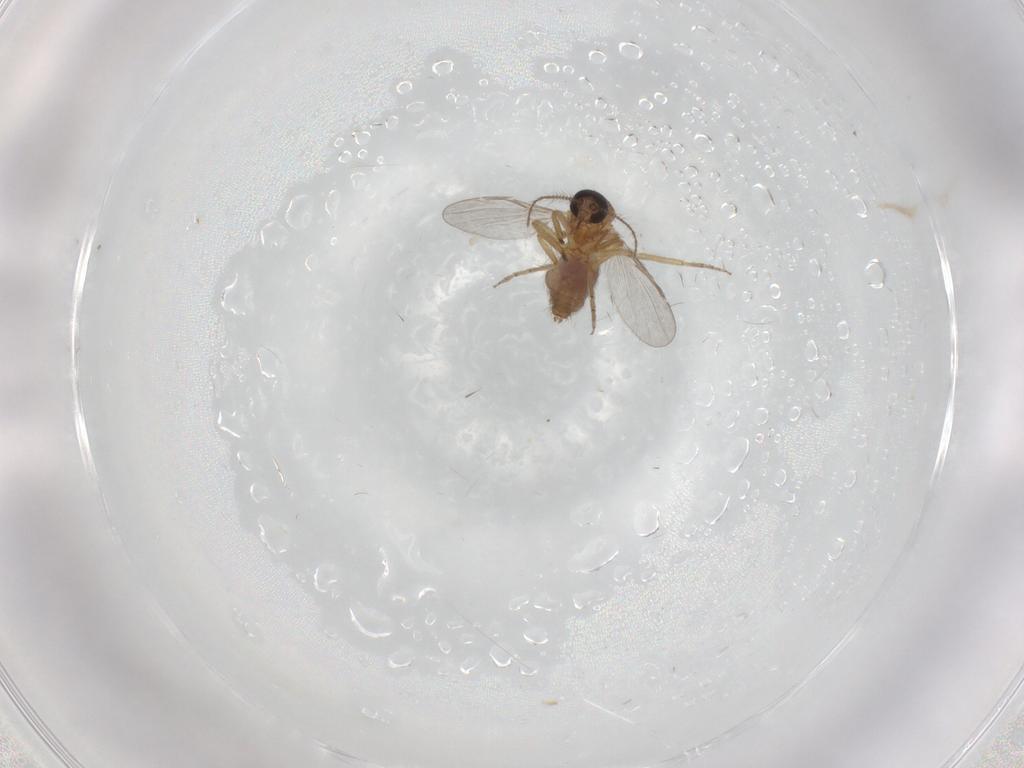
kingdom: Animalia
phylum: Arthropoda
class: Insecta
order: Diptera
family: Ceratopogonidae
